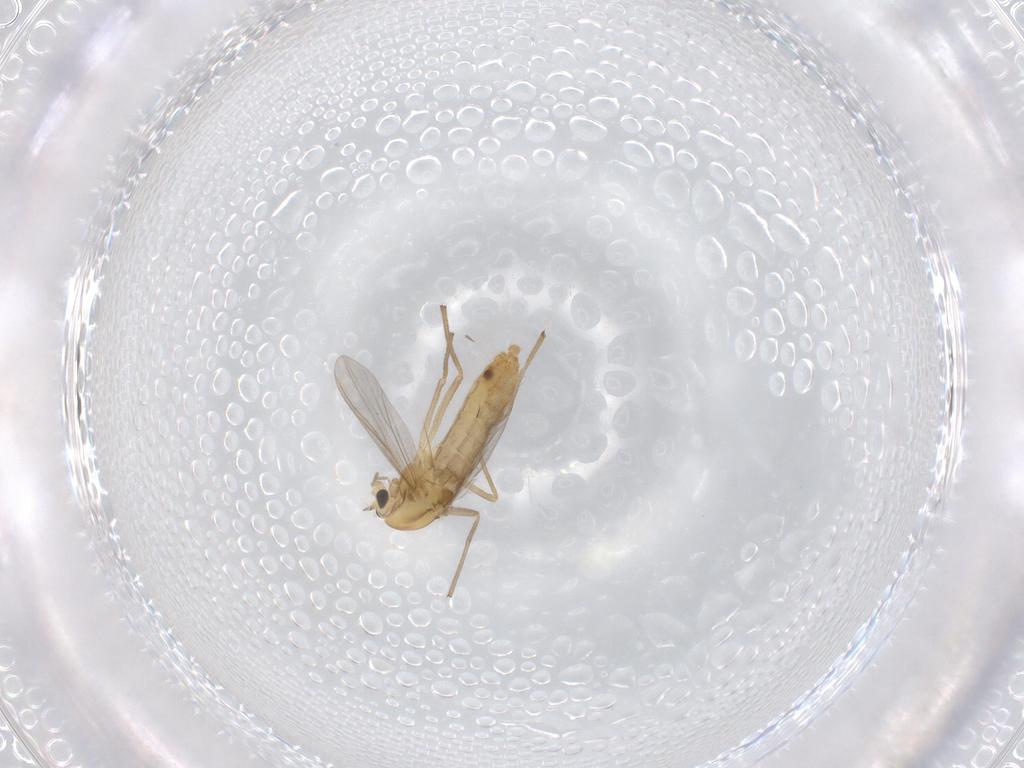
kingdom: Animalia
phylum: Arthropoda
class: Insecta
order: Diptera
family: Chironomidae
